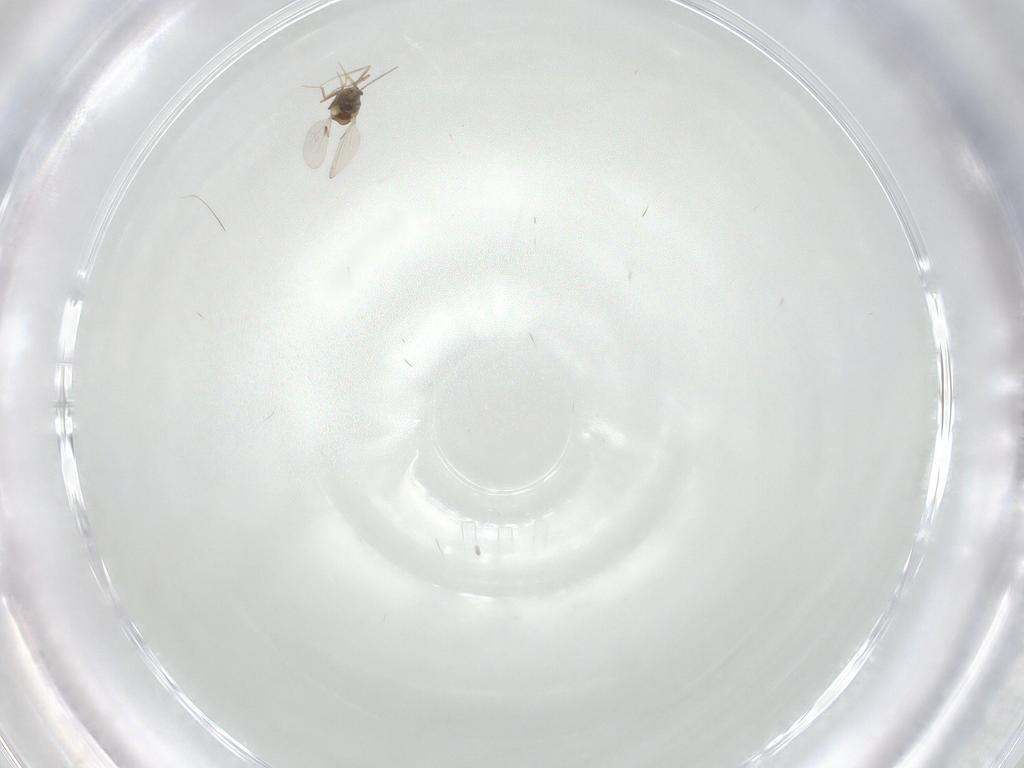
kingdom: Animalia
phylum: Arthropoda
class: Insecta
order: Diptera
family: Ceratopogonidae
